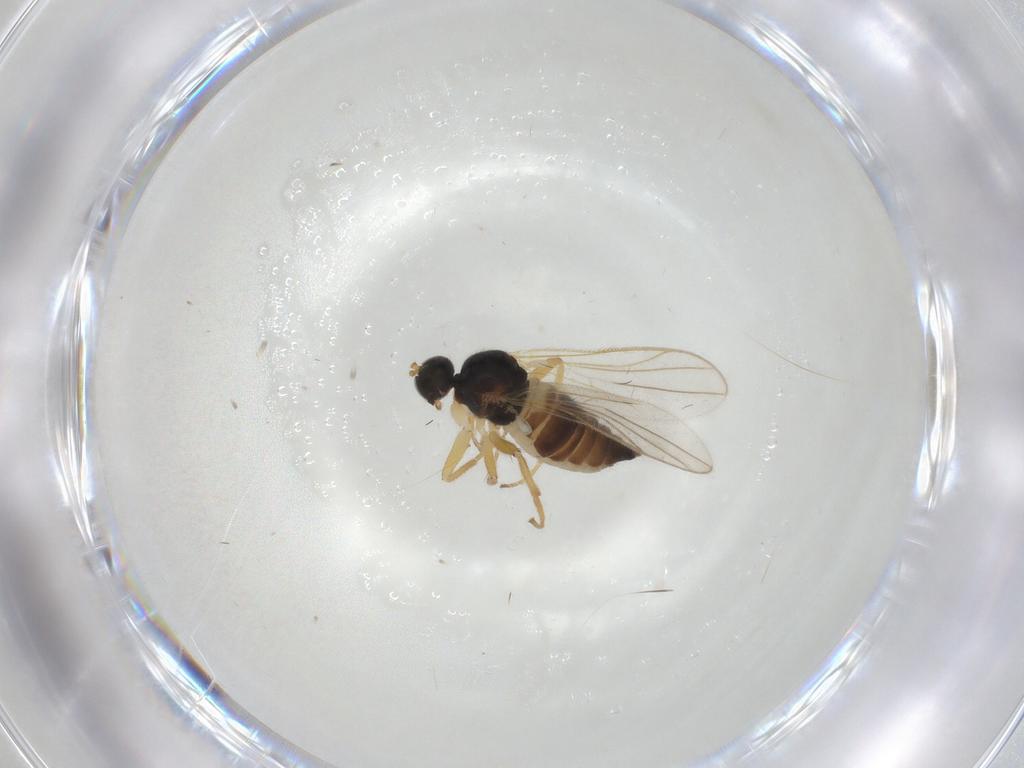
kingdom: Animalia
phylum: Arthropoda
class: Insecta
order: Diptera
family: Hybotidae
